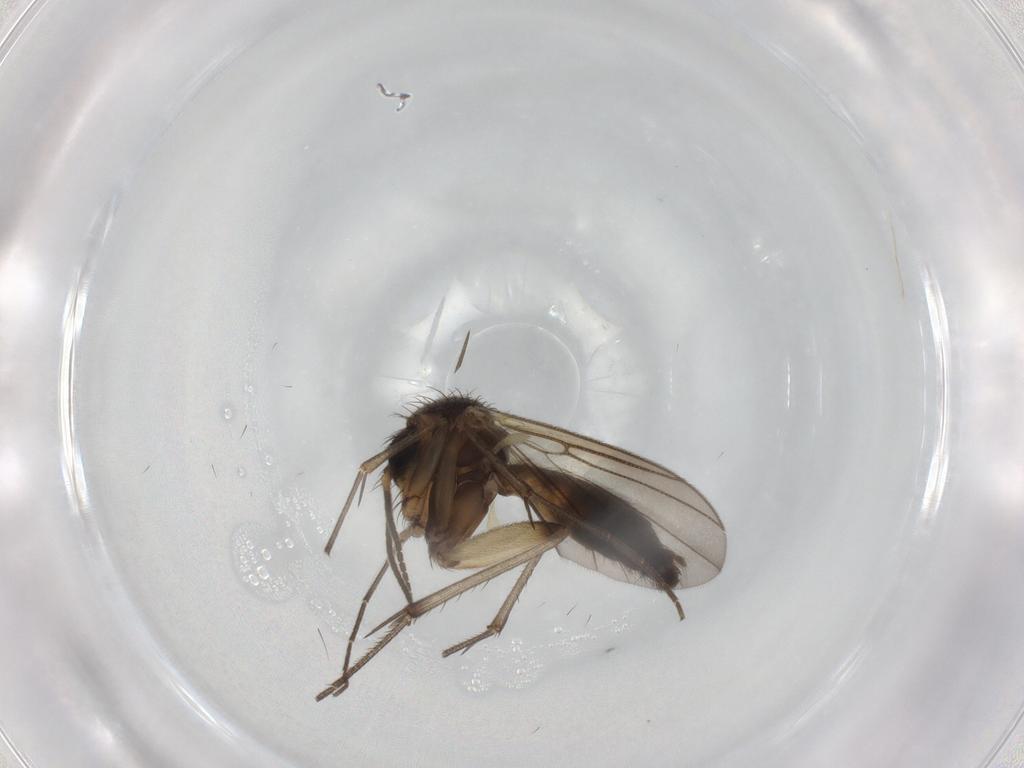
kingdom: Animalia
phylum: Arthropoda
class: Insecta
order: Diptera
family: Mycetophilidae
